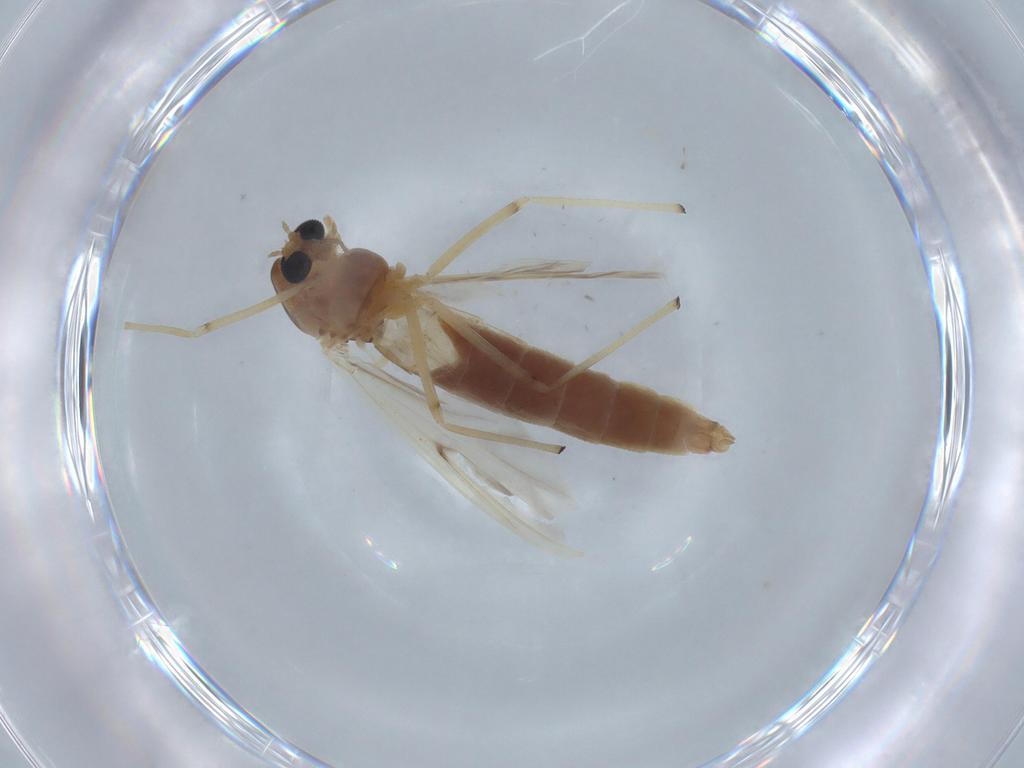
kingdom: Animalia
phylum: Arthropoda
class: Insecta
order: Diptera
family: Chironomidae
